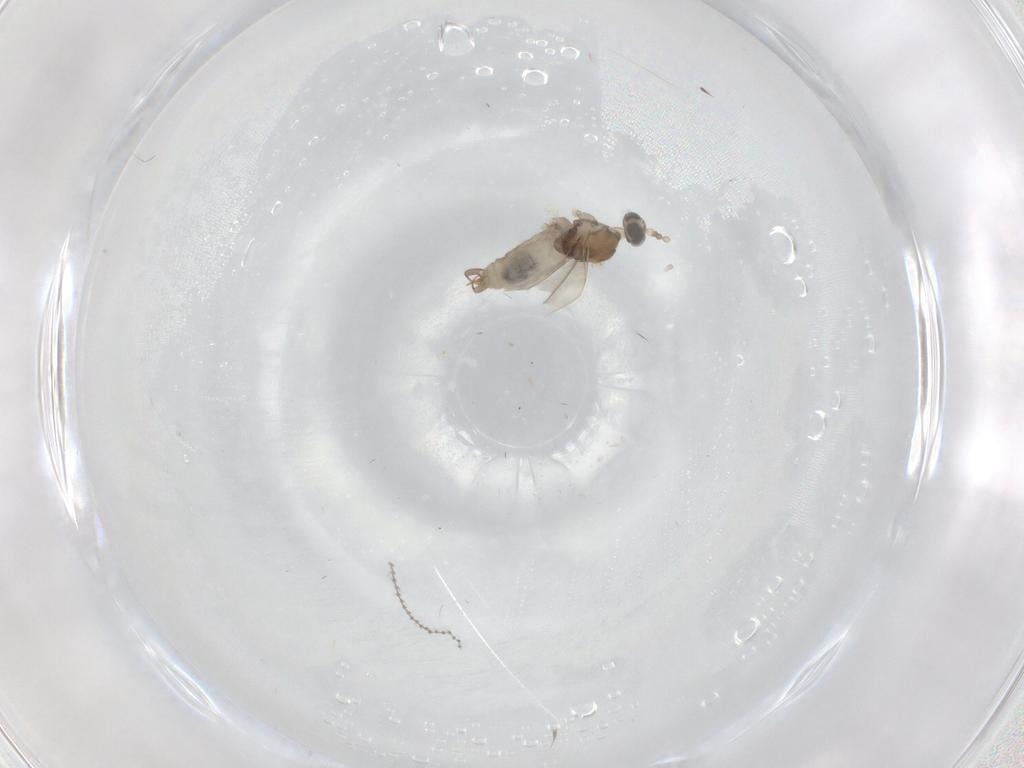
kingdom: Animalia
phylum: Arthropoda
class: Insecta
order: Diptera
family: Cecidomyiidae
